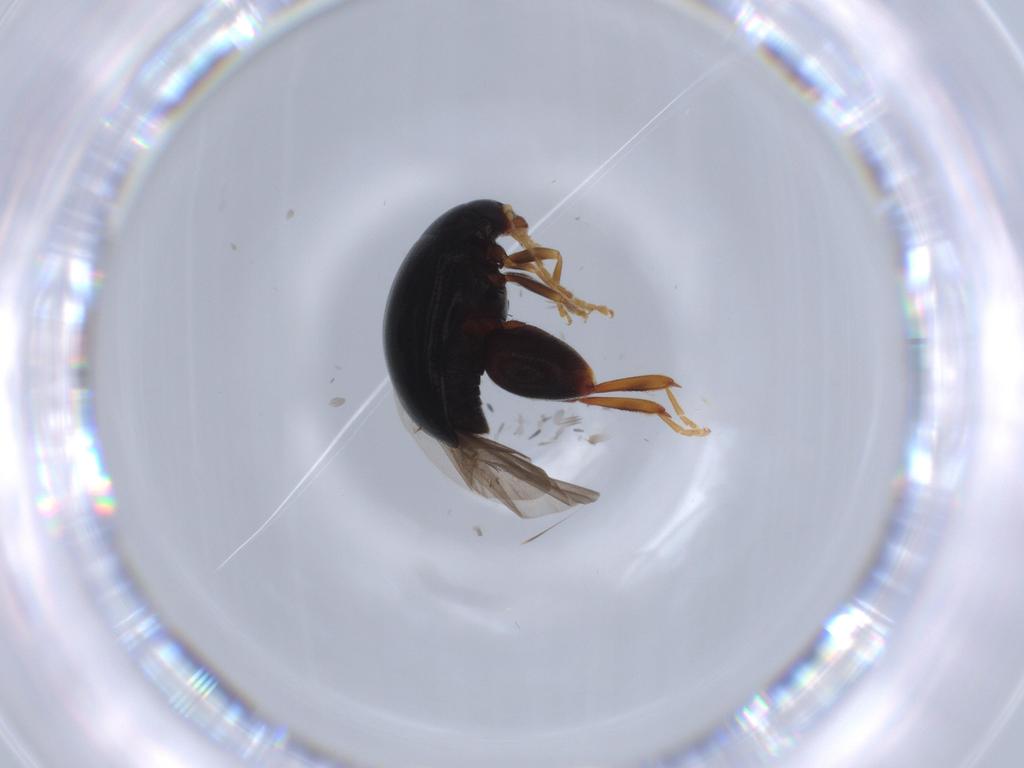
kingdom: Animalia
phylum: Arthropoda
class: Insecta
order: Coleoptera
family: Chrysomelidae
